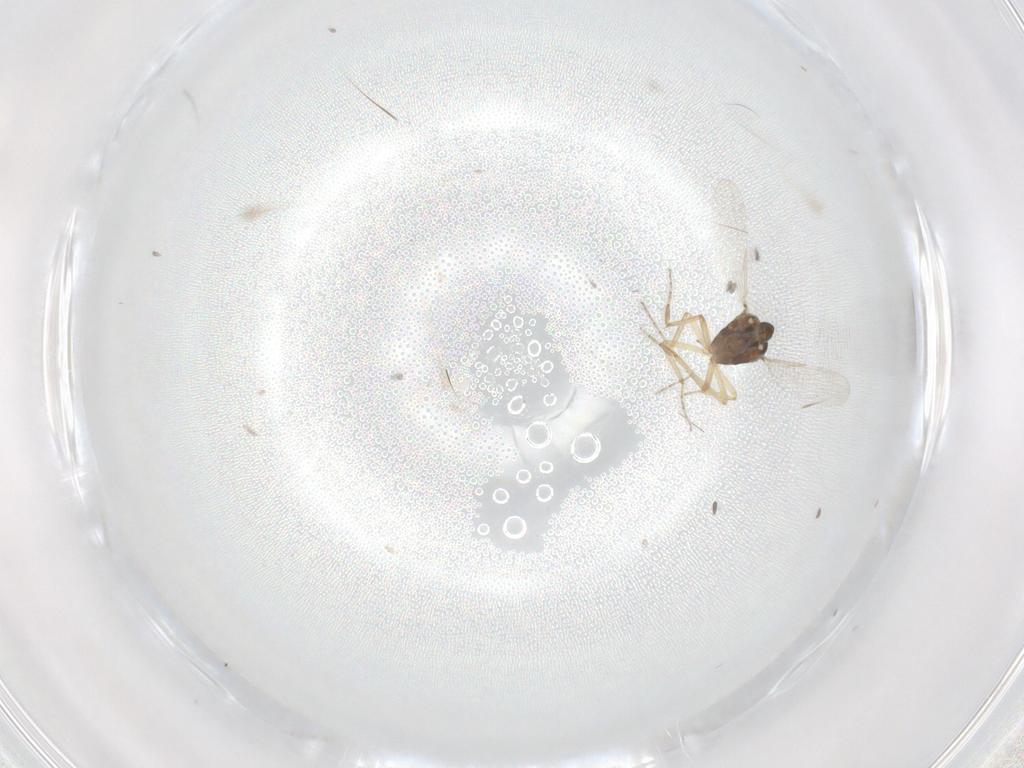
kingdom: Animalia
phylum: Arthropoda
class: Insecta
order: Diptera
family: Ceratopogonidae
